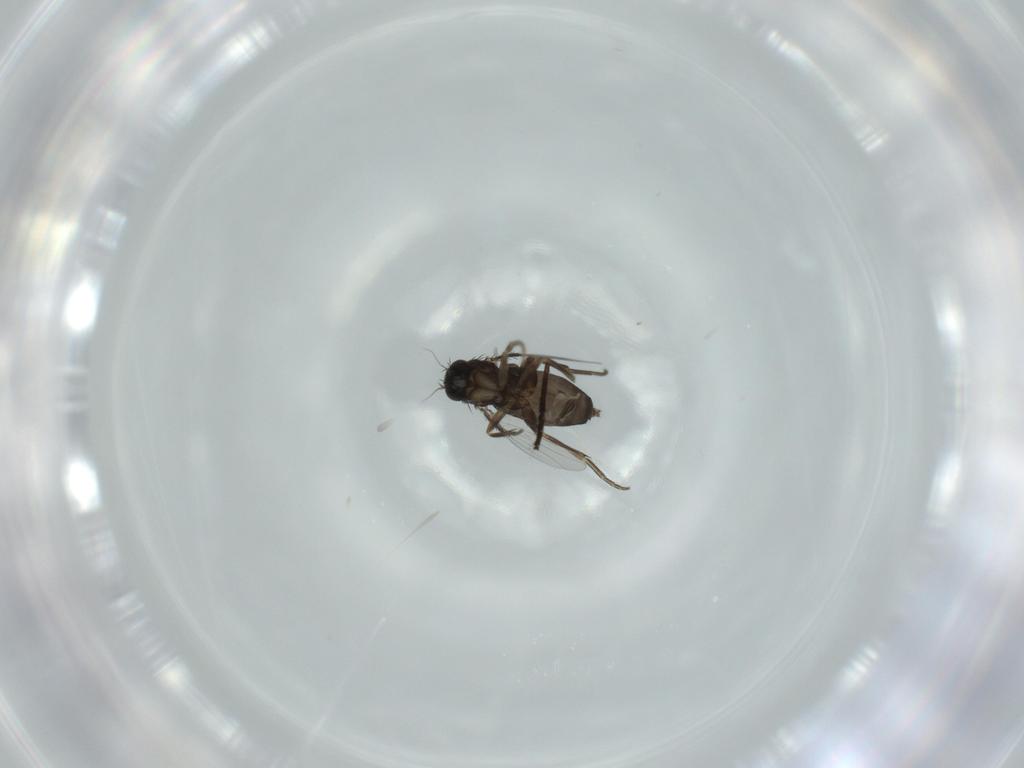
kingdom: Animalia
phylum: Arthropoda
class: Insecta
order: Diptera
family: Phoridae
